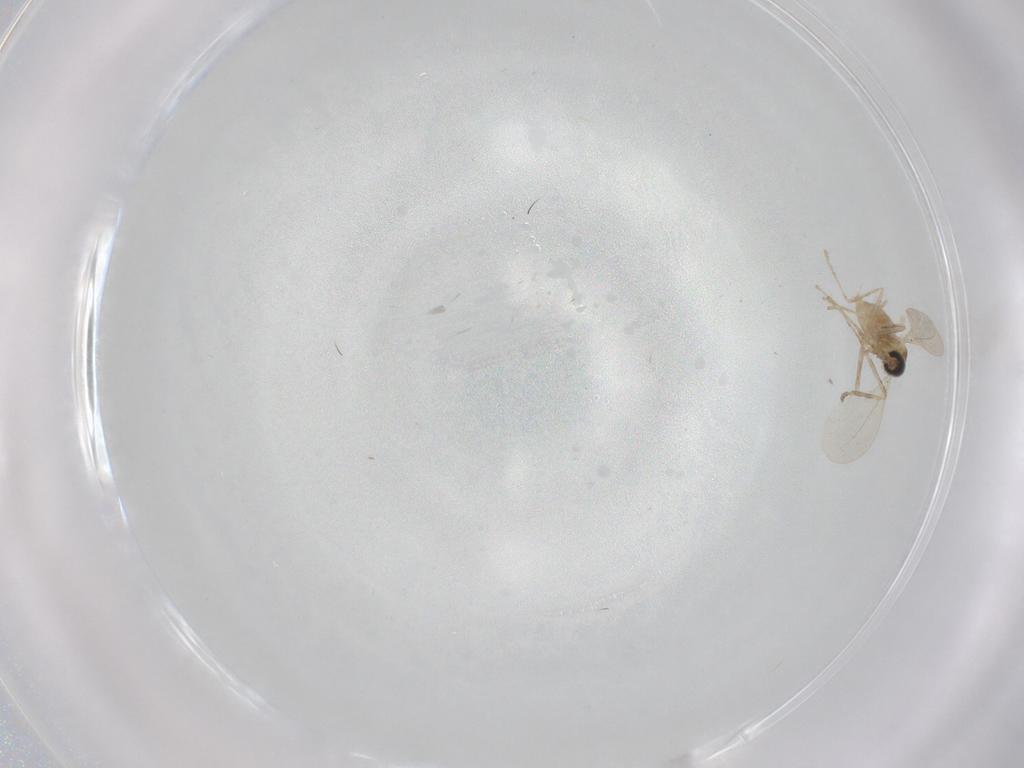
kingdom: Animalia
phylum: Arthropoda
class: Insecta
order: Diptera
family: Cecidomyiidae
